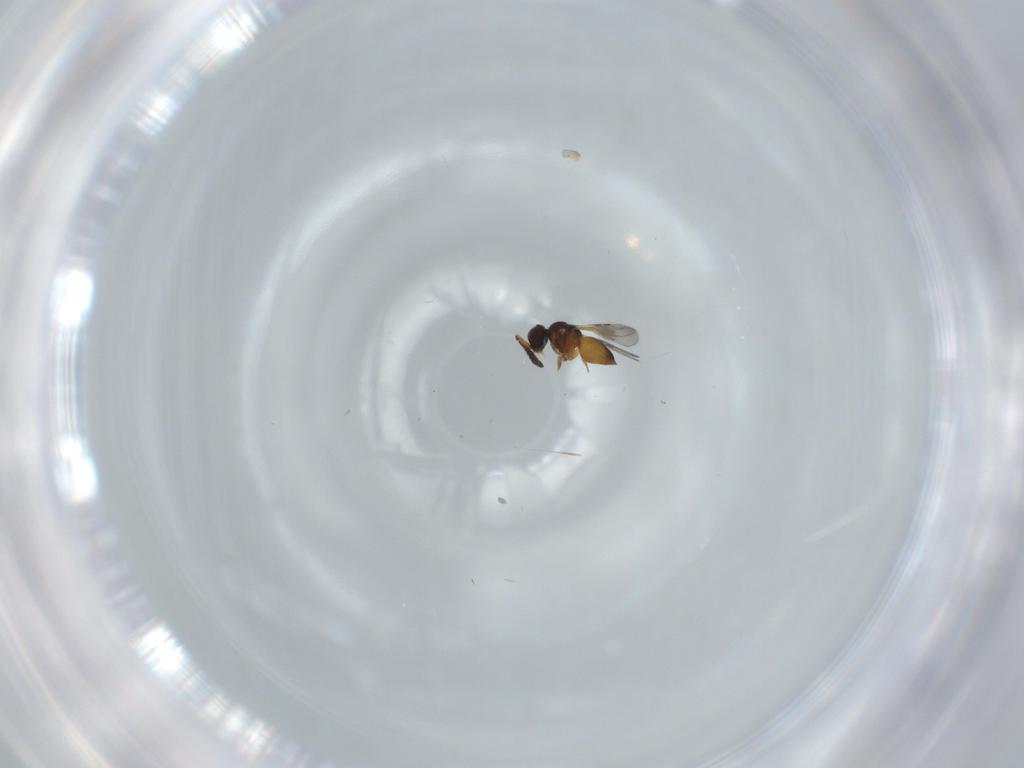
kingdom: Animalia
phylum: Arthropoda
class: Insecta
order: Hymenoptera
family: Ceraphronidae
